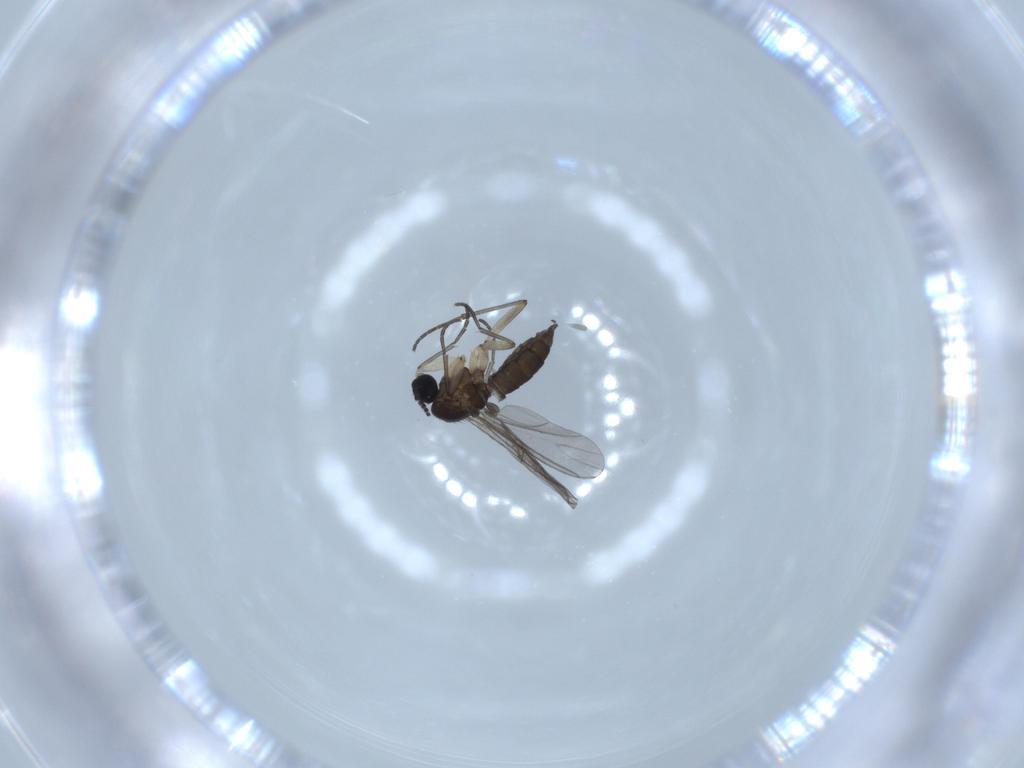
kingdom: Animalia
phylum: Arthropoda
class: Insecta
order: Diptera
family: Sciaridae
